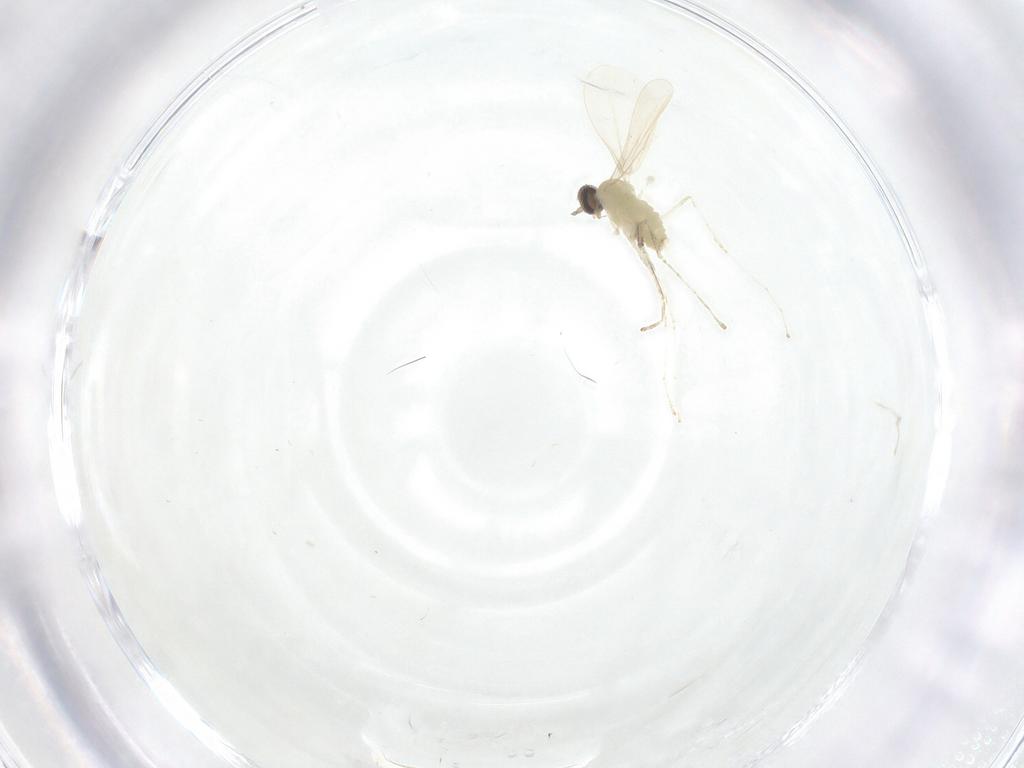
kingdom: Animalia
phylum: Arthropoda
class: Insecta
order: Diptera
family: Cecidomyiidae
